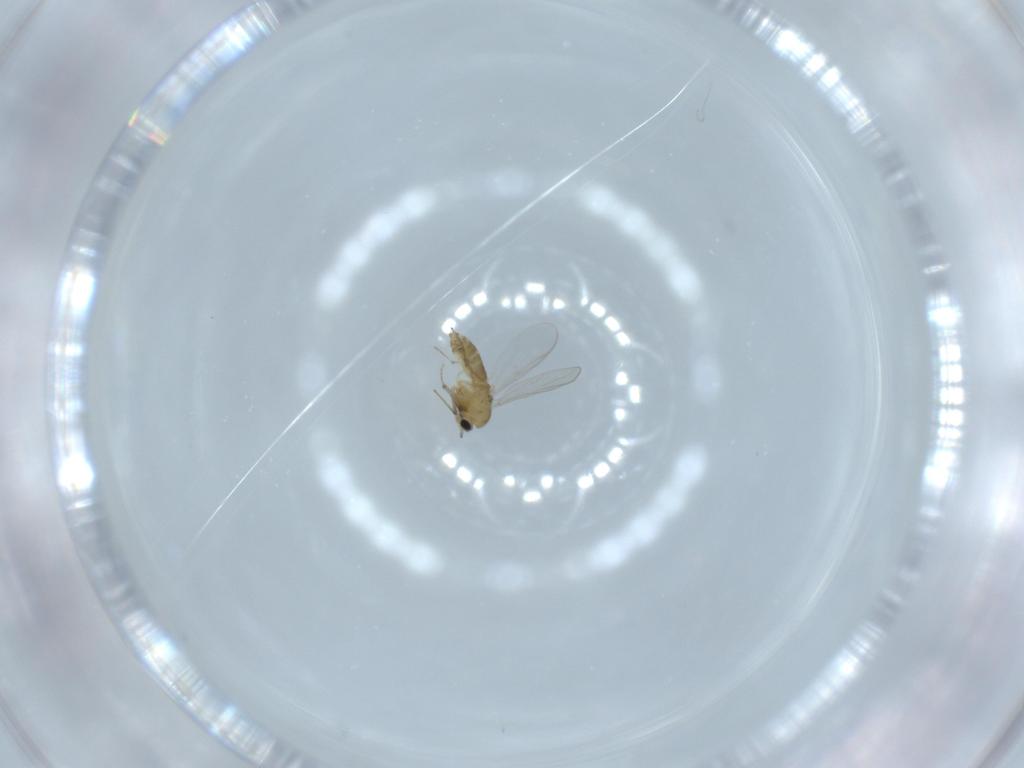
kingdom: Animalia
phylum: Arthropoda
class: Insecta
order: Diptera
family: Chironomidae
